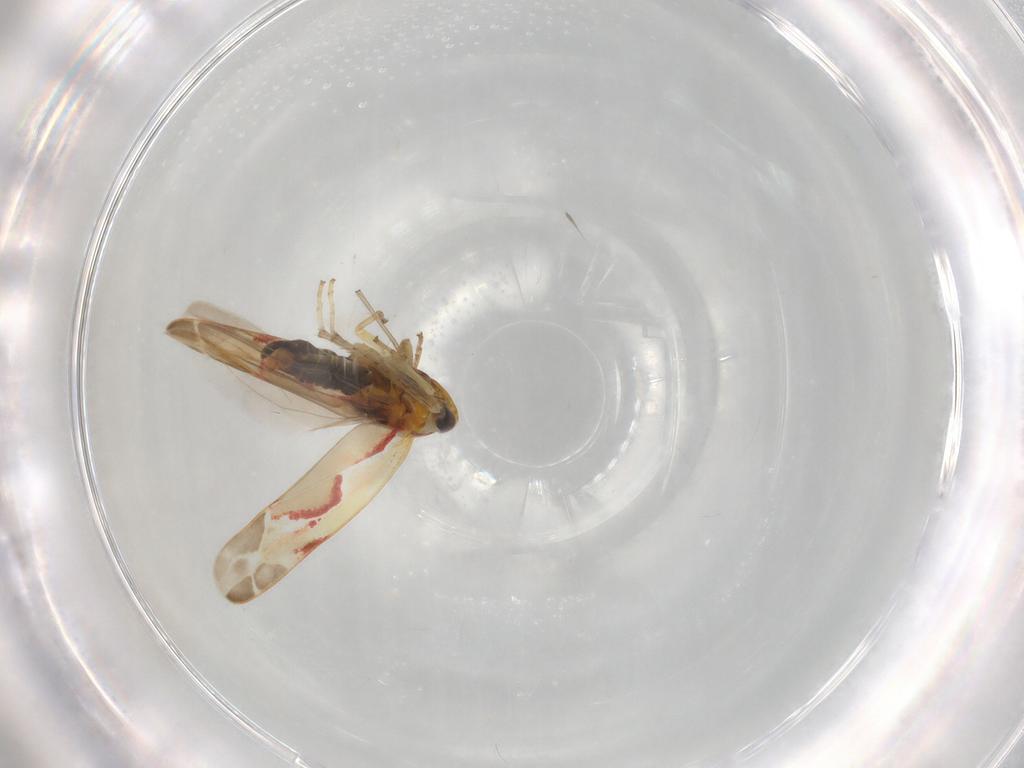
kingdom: Animalia
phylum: Arthropoda
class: Insecta
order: Hemiptera
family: Cicadellidae
